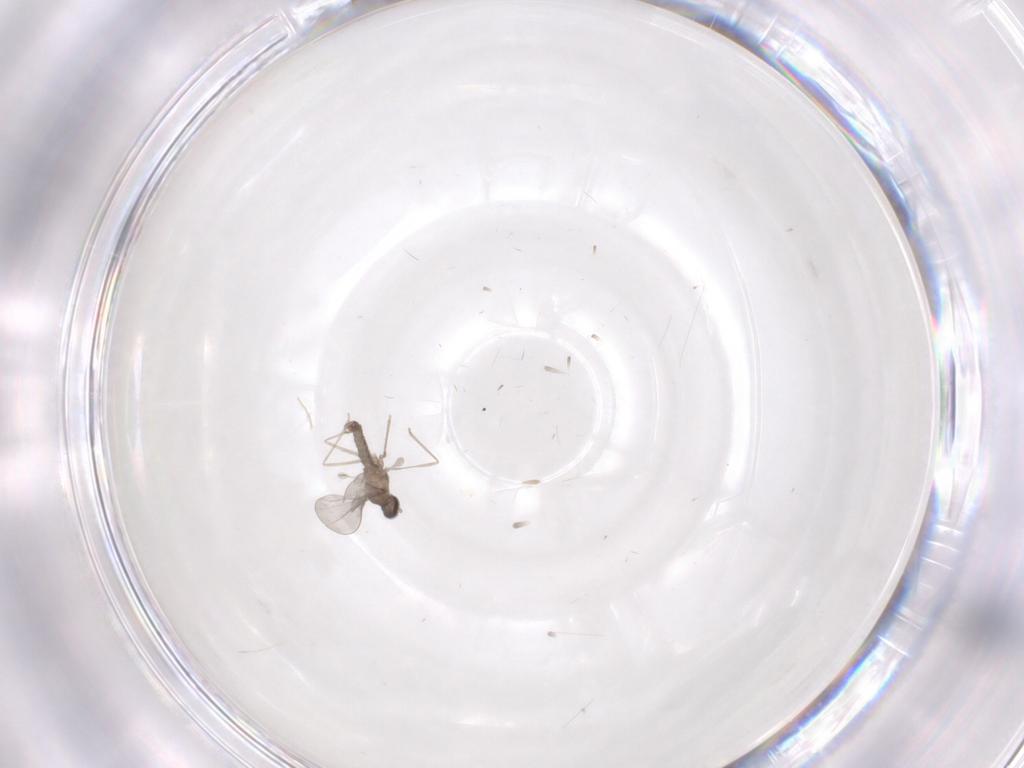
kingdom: Animalia
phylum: Arthropoda
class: Insecta
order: Diptera
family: Cecidomyiidae
